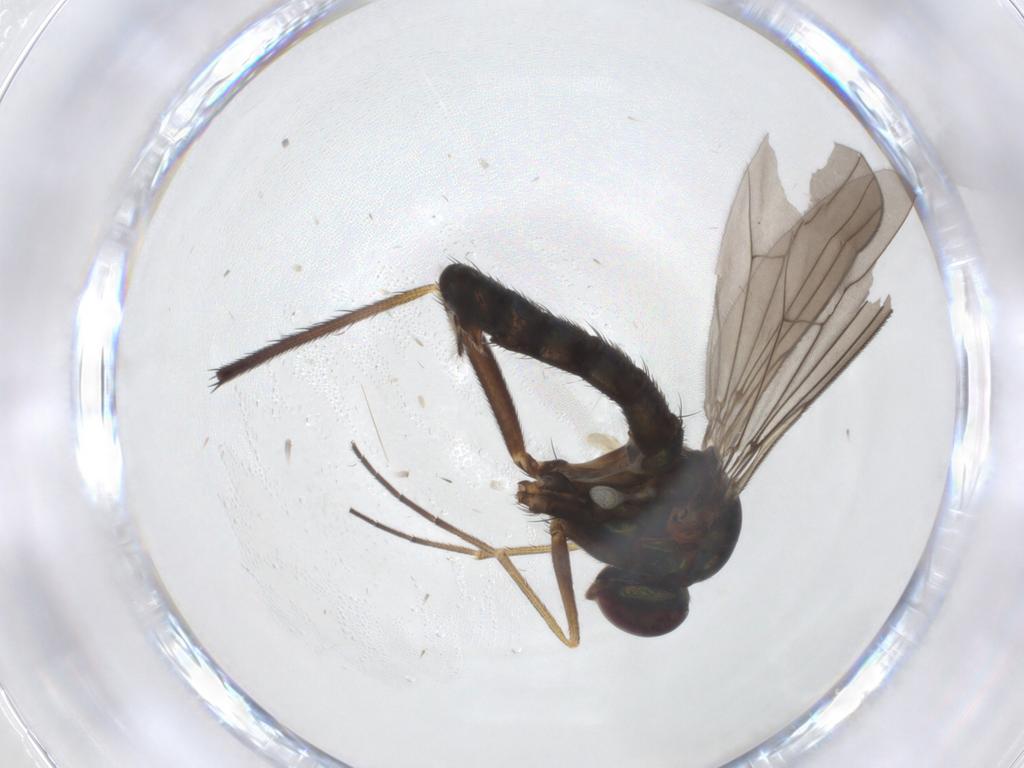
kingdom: Animalia
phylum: Arthropoda
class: Insecta
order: Diptera
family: Dolichopodidae
